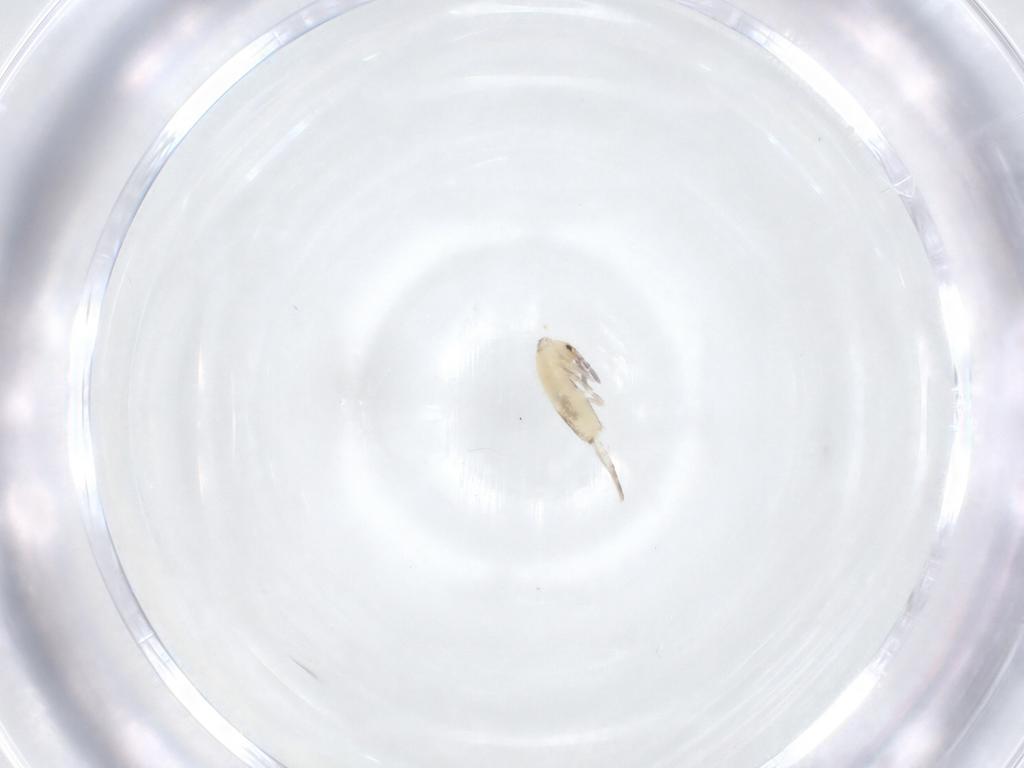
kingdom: Animalia
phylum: Arthropoda
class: Collembola
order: Entomobryomorpha
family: Entomobryidae
